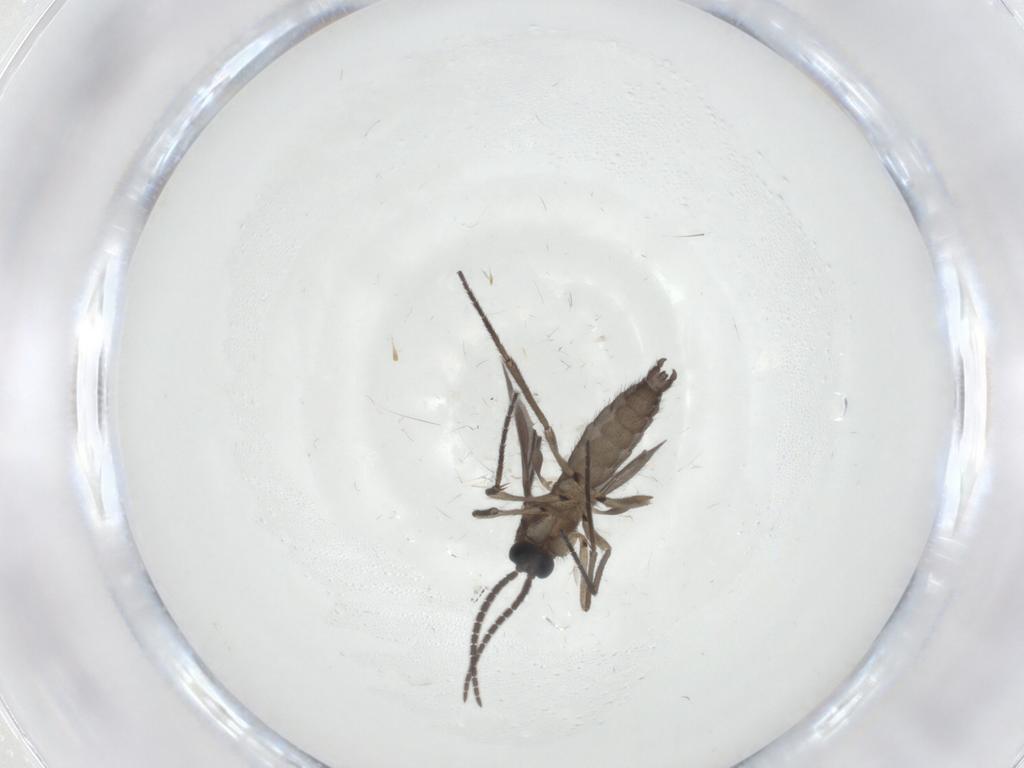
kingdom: Animalia
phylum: Arthropoda
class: Insecta
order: Diptera
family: Sciaridae
